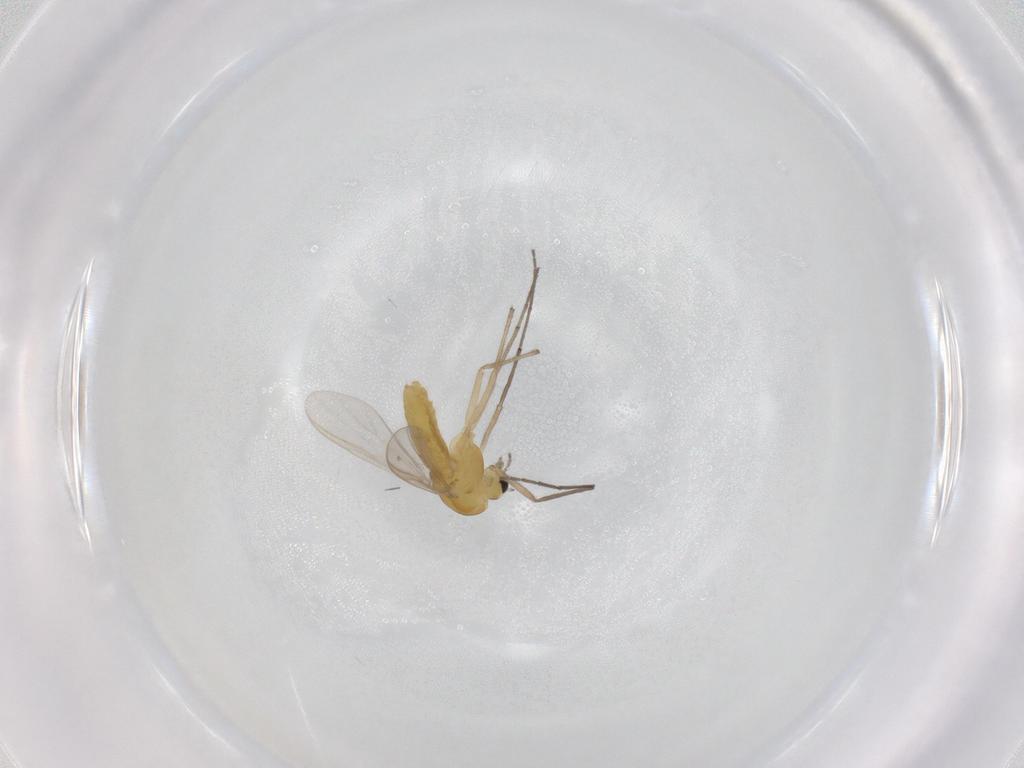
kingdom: Animalia
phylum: Arthropoda
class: Insecta
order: Diptera
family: Chironomidae
